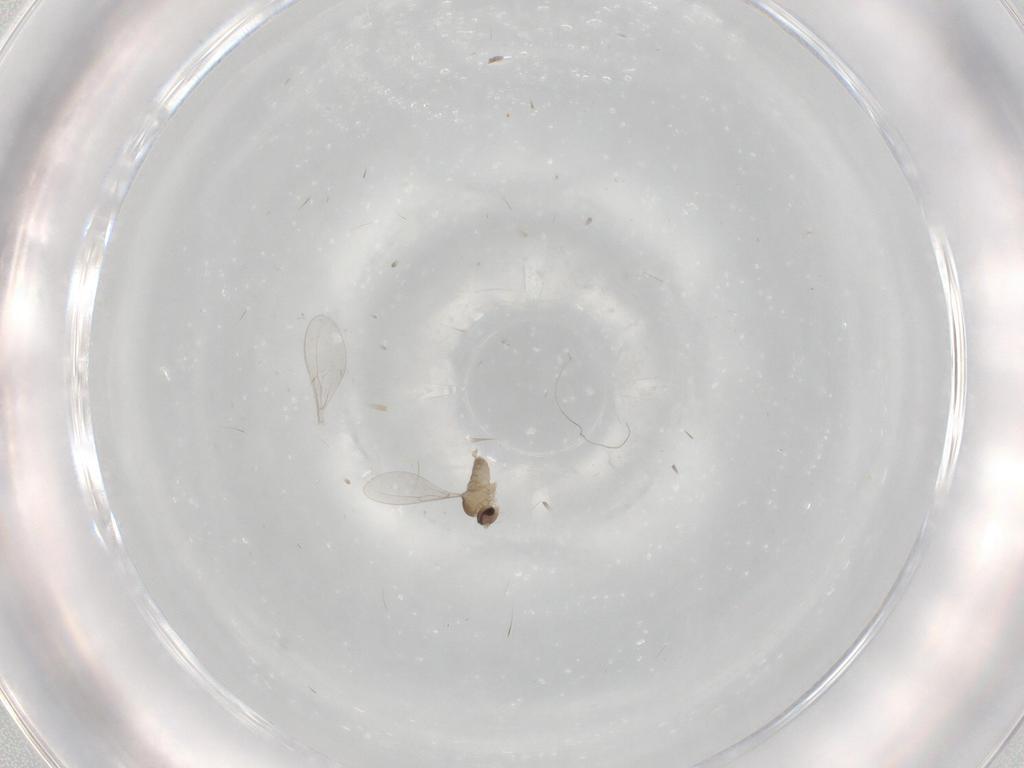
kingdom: Animalia
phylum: Arthropoda
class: Insecta
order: Diptera
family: Cecidomyiidae
